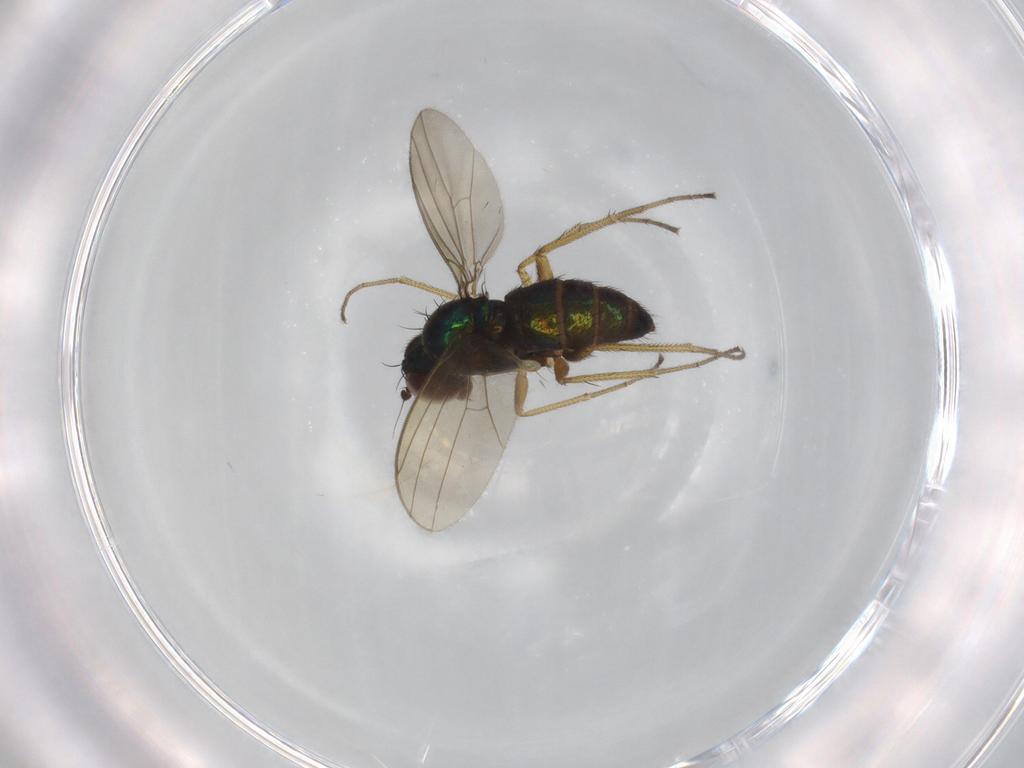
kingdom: Animalia
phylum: Arthropoda
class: Insecta
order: Diptera
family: Dolichopodidae
